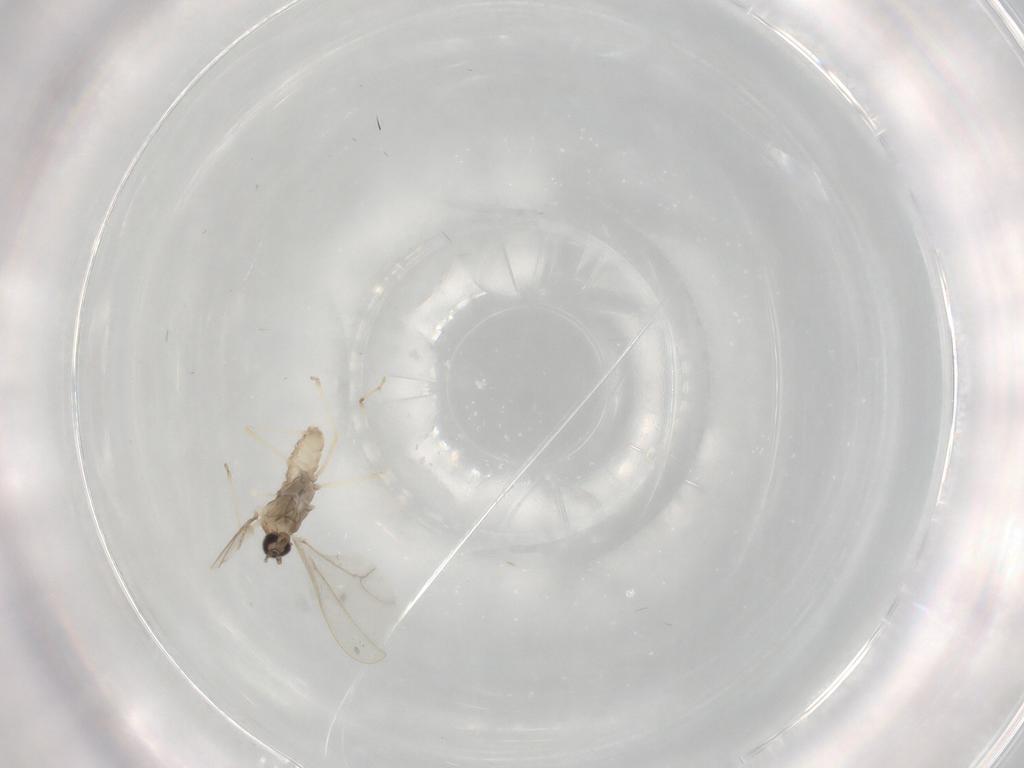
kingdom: Animalia
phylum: Arthropoda
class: Insecta
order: Diptera
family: Cecidomyiidae
